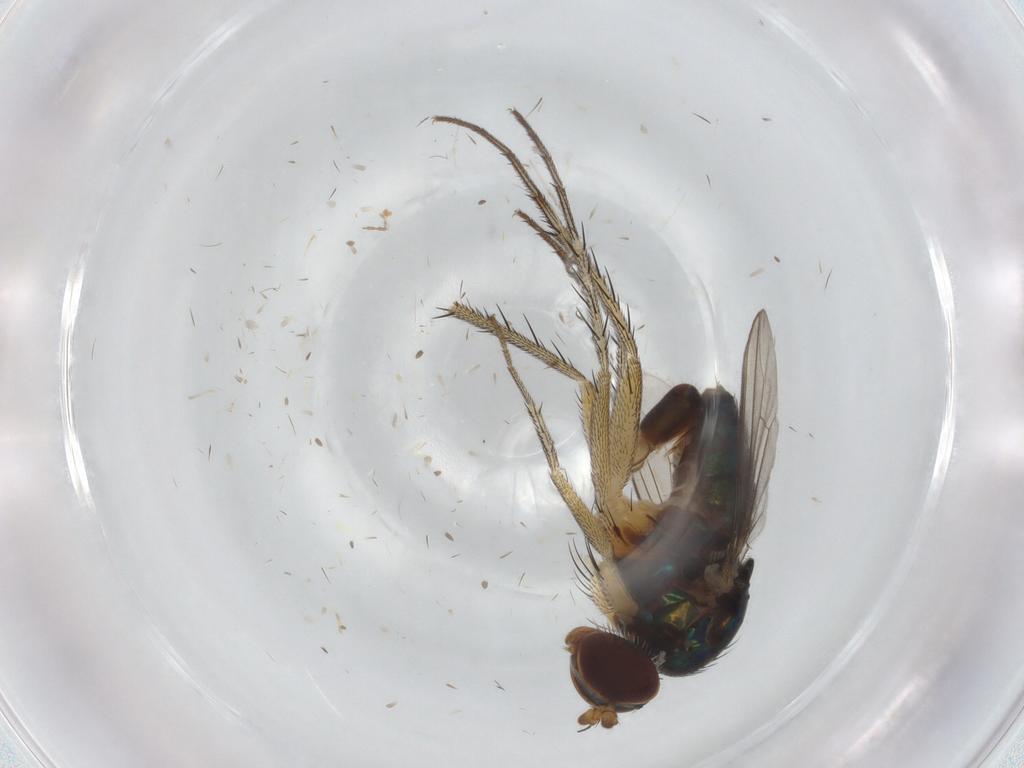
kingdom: Animalia
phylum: Arthropoda
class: Insecta
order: Diptera
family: Dolichopodidae
